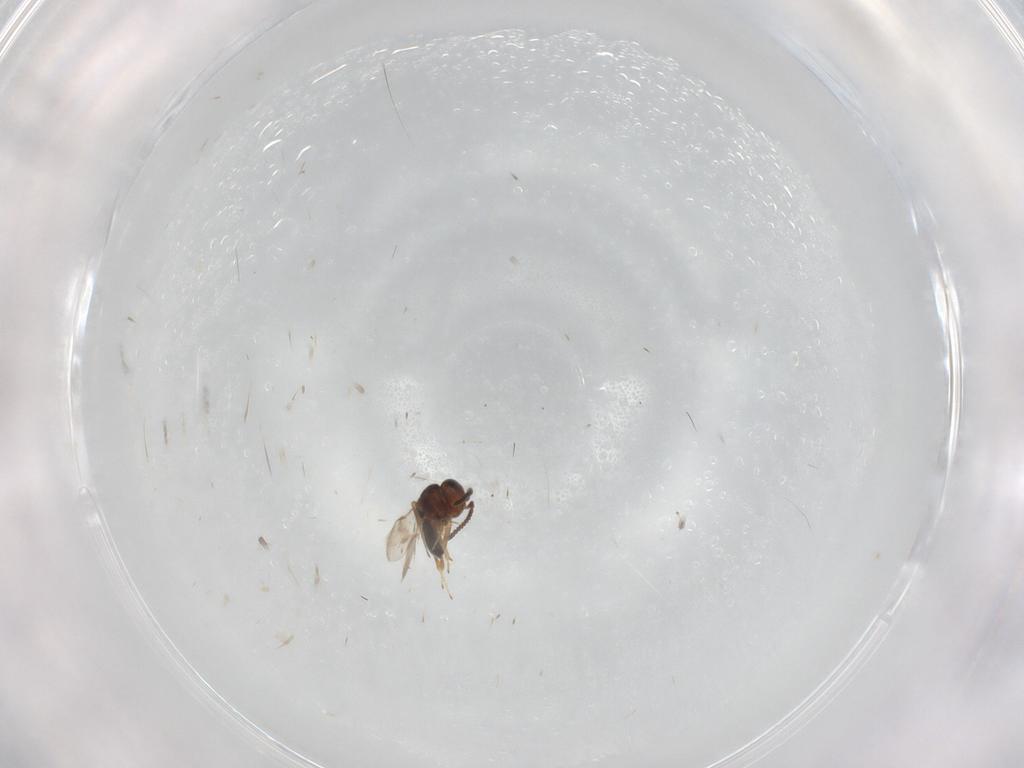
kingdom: Animalia
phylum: Arthropoda
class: Insecta
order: Hymenoptera
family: Scelionidae
